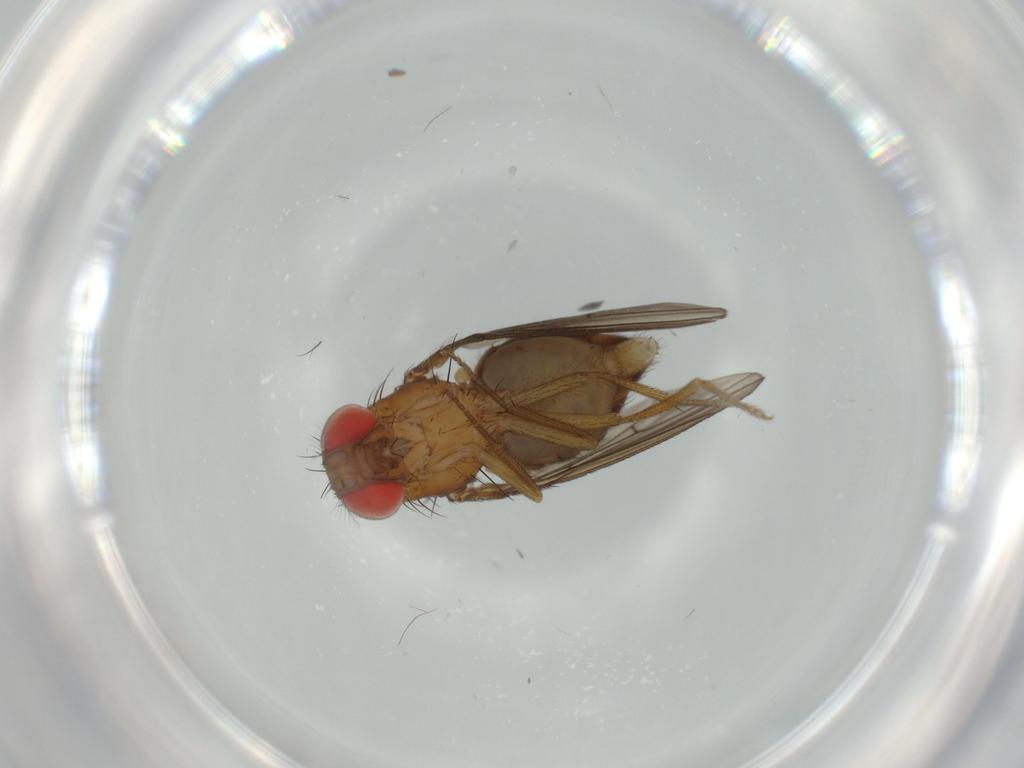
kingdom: Animalia
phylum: Arthropoda
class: Insecta
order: Diptera
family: Drosophilidae
